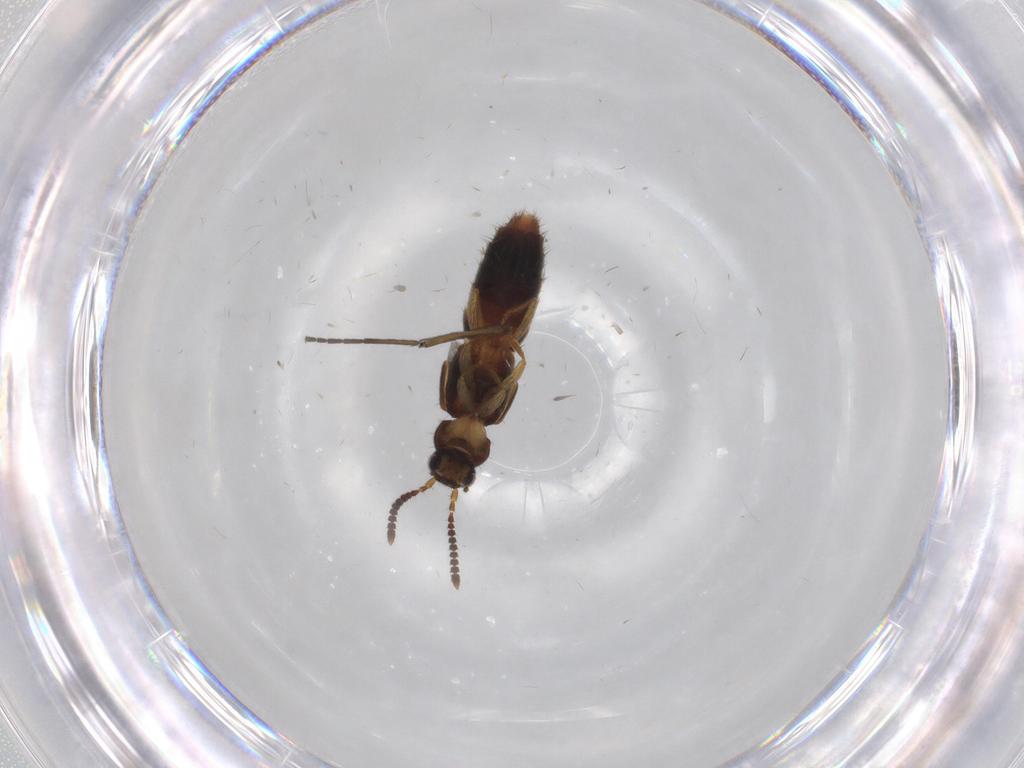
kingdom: Animalia
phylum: Arthropoda
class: Insecta
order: Coleoptera
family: Staphylinidae
